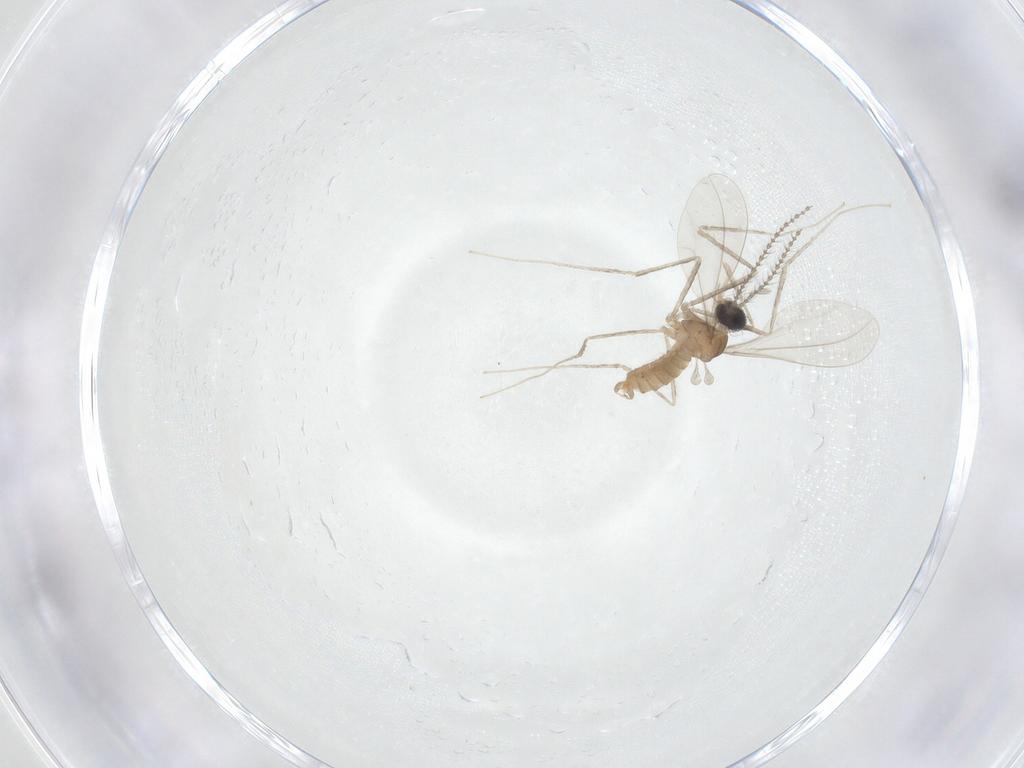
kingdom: Animalia
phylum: Arthropoda
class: Insecta
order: Diptera
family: Cecidomyiidae
